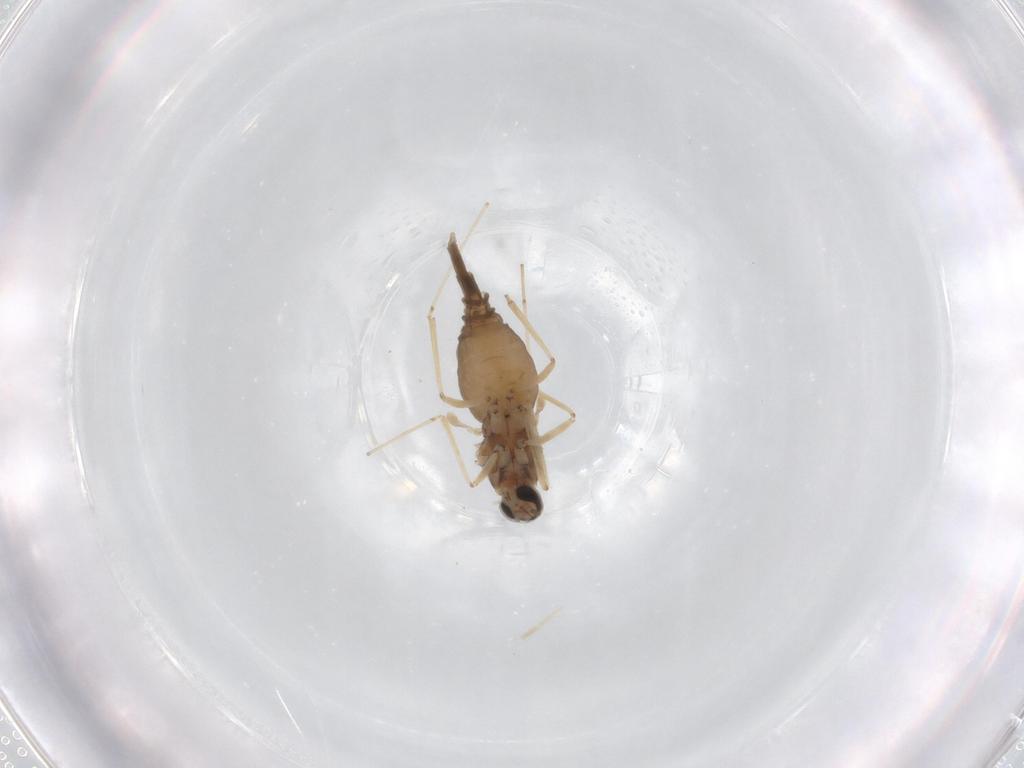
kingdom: Animalia
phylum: Arthropoda
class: Insecta
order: Diptera
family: Cecidomyiidae
